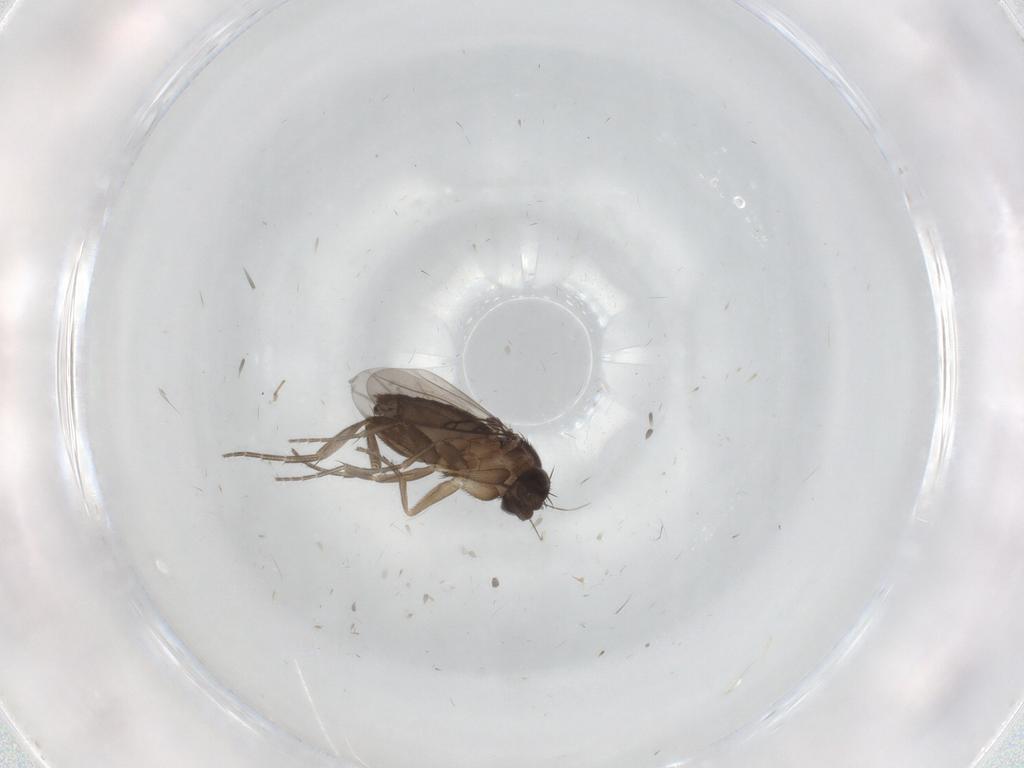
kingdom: Animalia
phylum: Arthropoda
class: Insecta
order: Diptera
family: Phoridae
